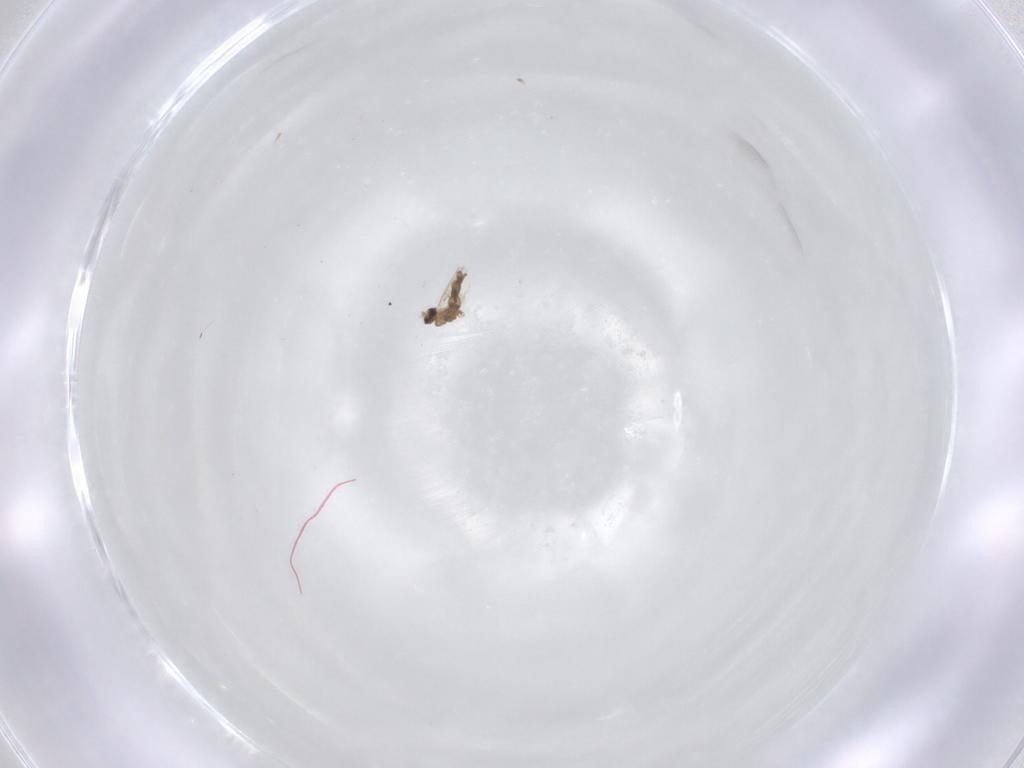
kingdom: Animalia
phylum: Arthropoda
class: Insecta
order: Diptera
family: Cecidomyiidae
